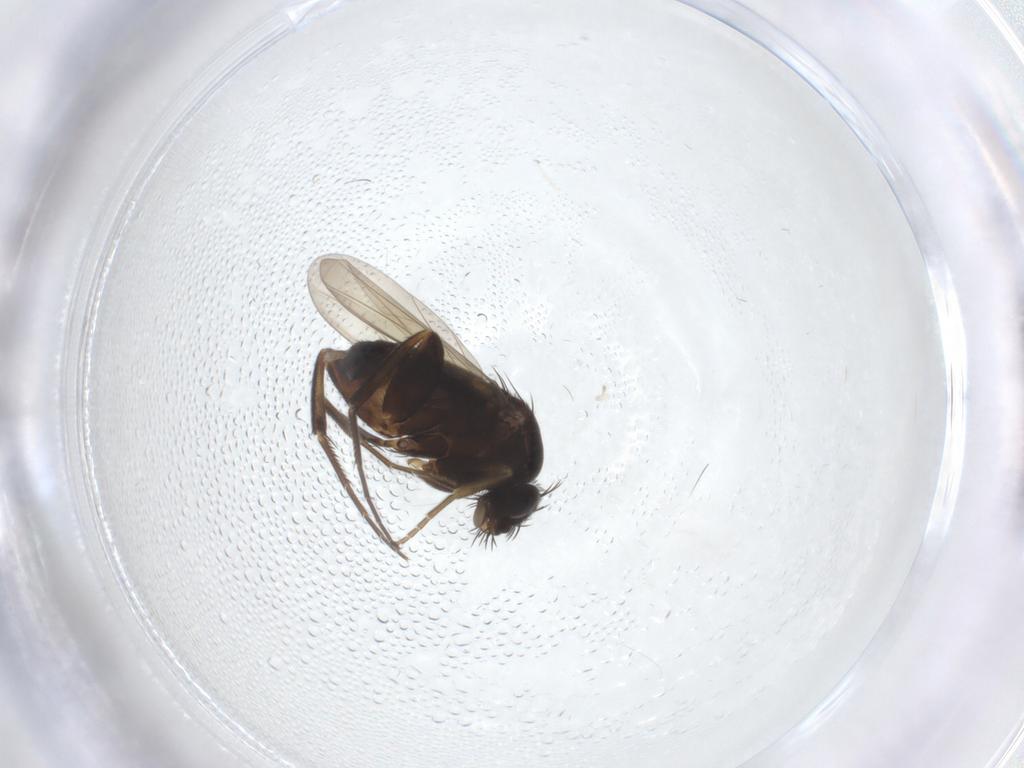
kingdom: Animalia
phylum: Arthropoda
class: Insecta
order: Diptera
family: Phoridae
